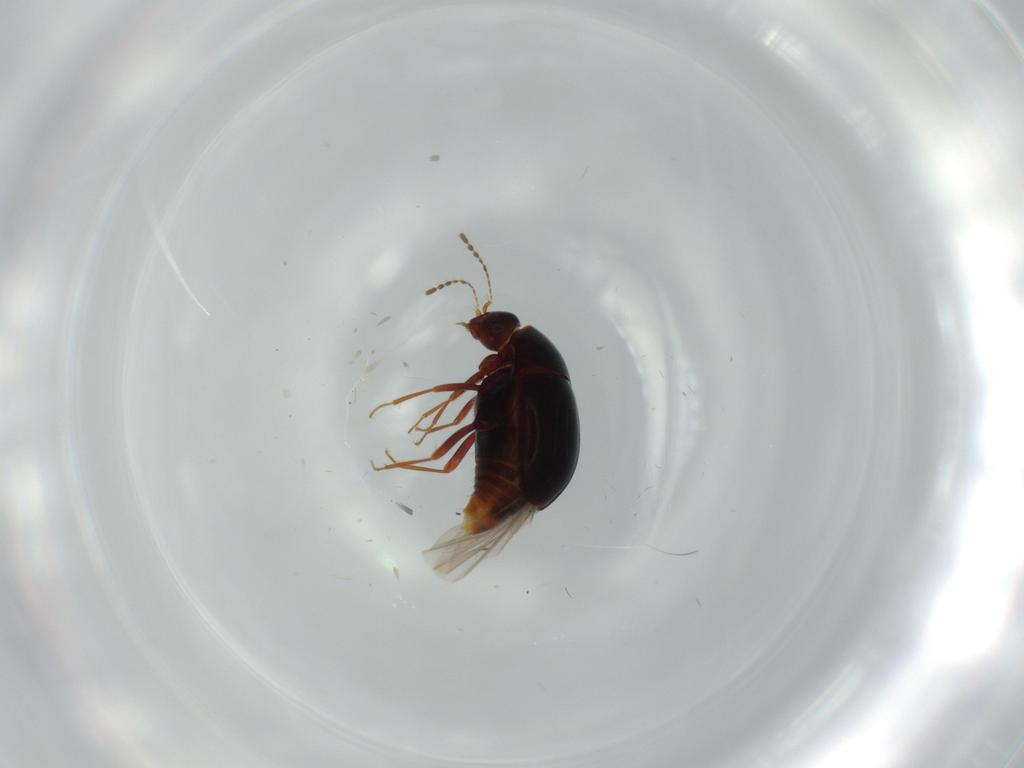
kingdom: Animalia
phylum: Arthropoda
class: Insecta
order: Coleoptera
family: Staphylinidae
